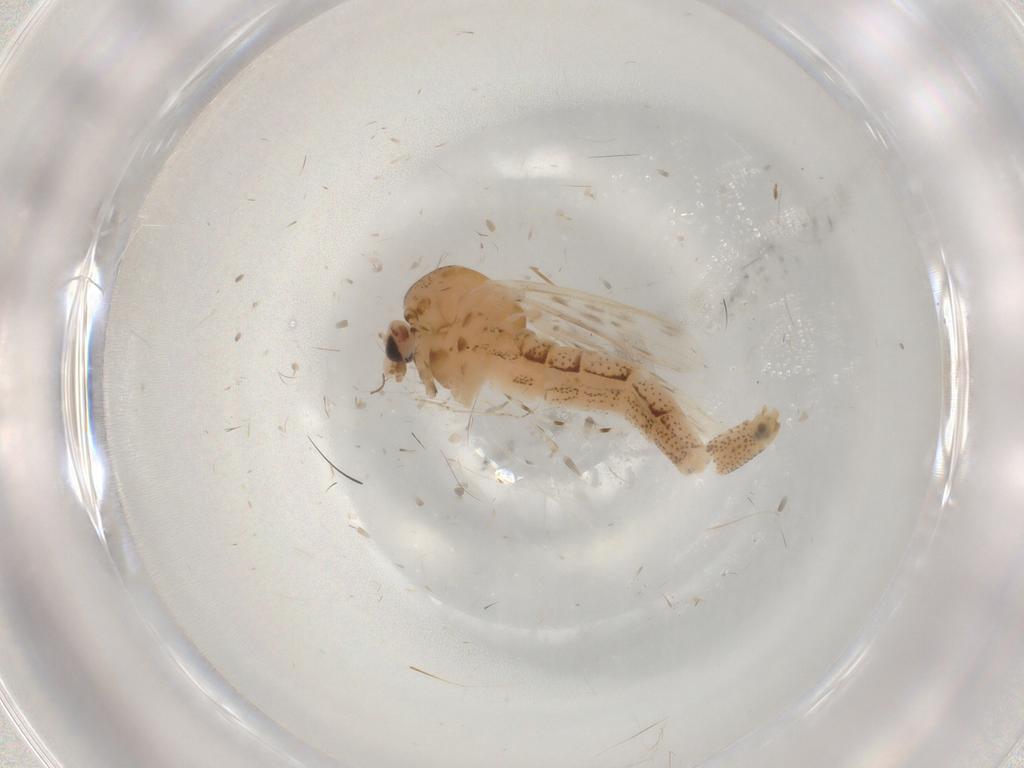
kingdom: Animalia
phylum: Arthropoda
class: Insecta
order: Diptera
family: Chaoboridae
